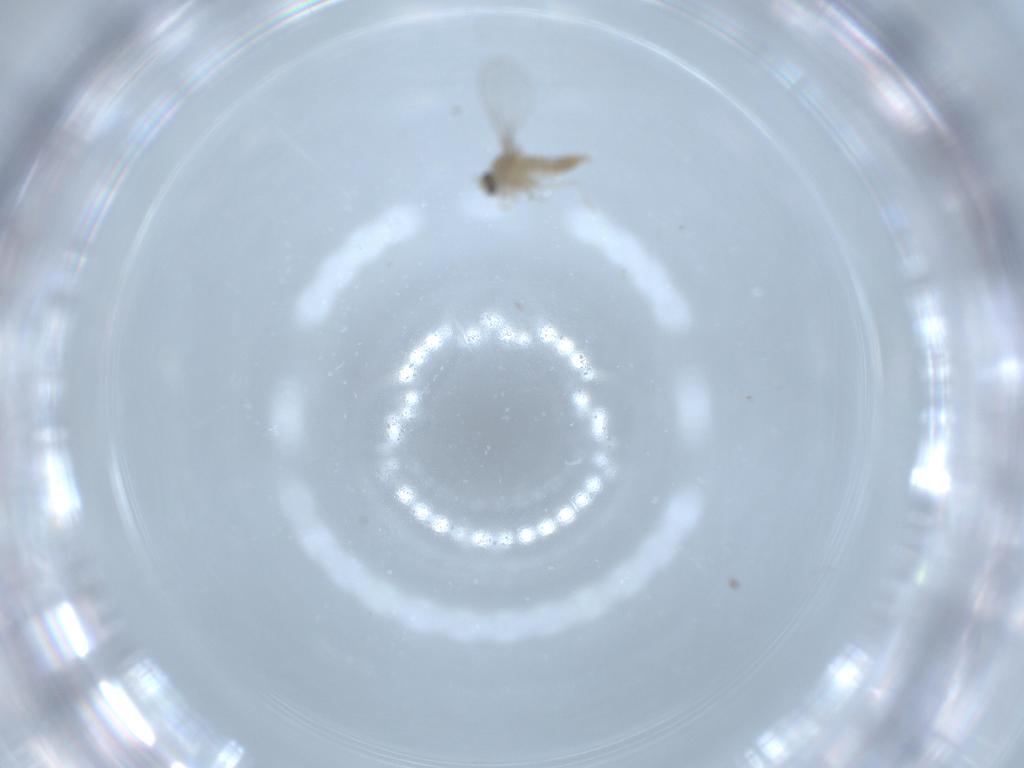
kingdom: Animalia
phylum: Arthropoda
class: Insecta
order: Diptera
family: Cecidomyiidae
